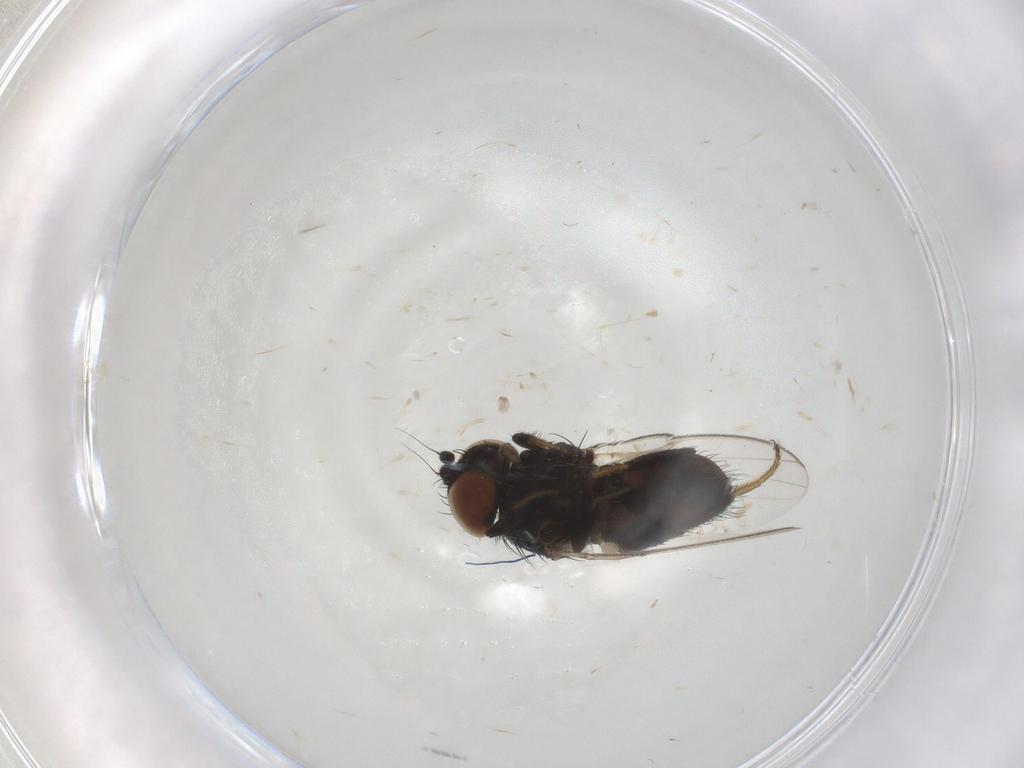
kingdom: Animalia
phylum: Arthropoda
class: Insecta
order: Diptera
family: Milichiidae
